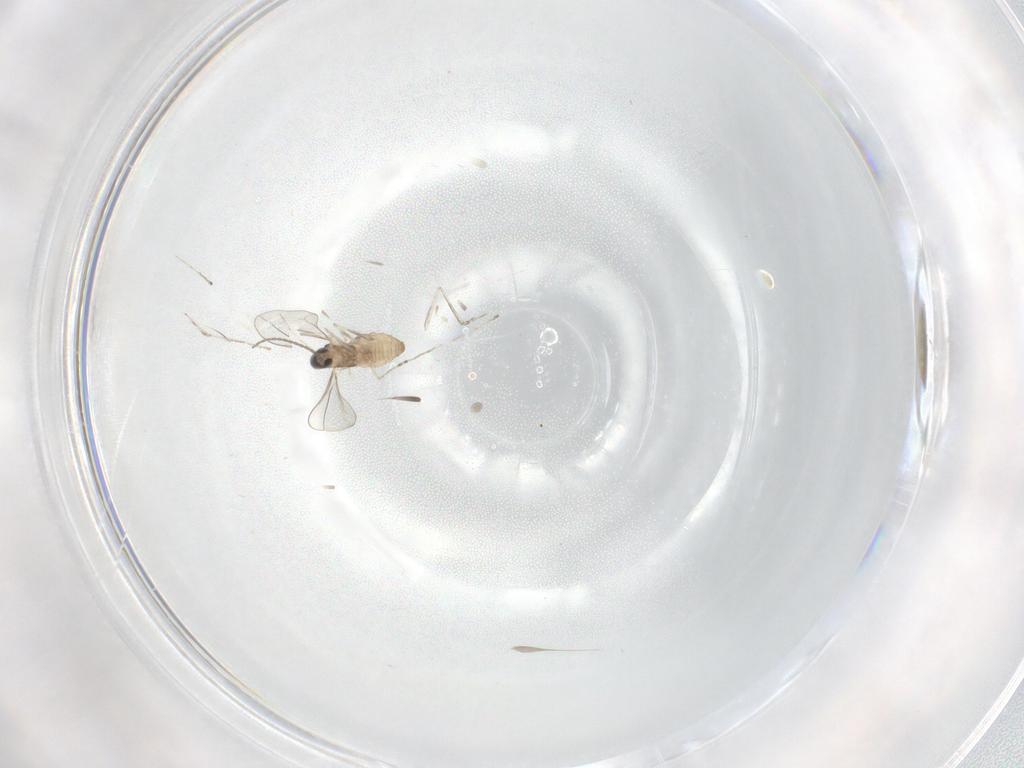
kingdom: Animalia
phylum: Arthropoda
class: Insecta
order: Diptera
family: Cecidomyiidae
